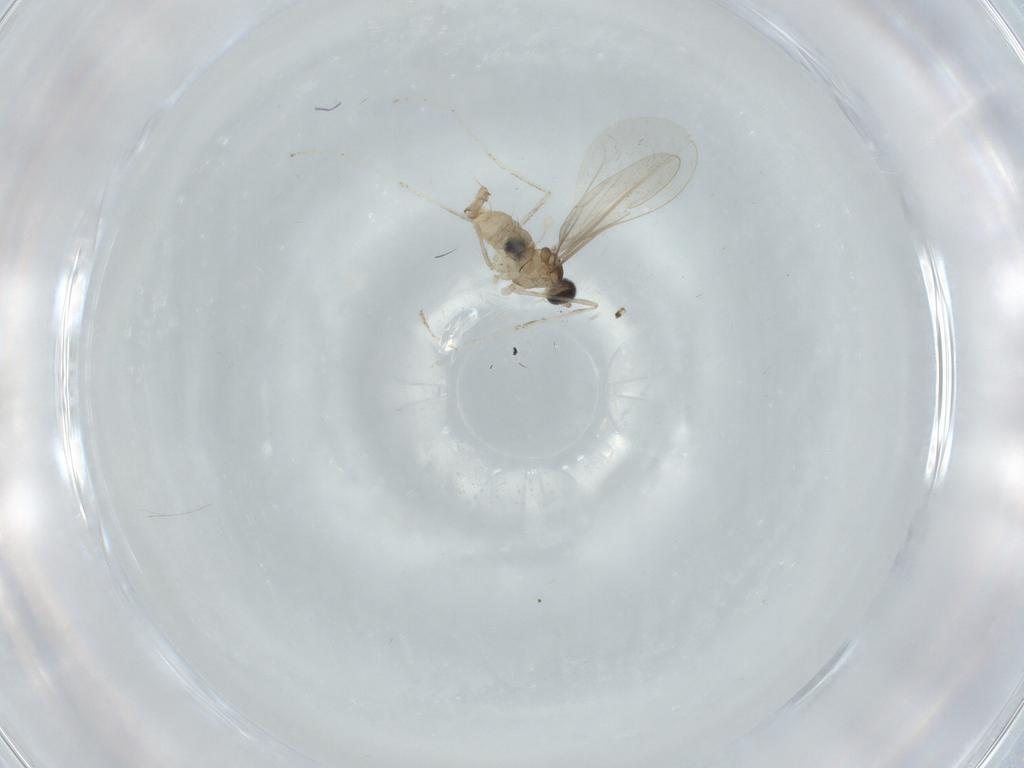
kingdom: Animalia
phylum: Arthropoda
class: Insecta
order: Diptera
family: Cecidomyiidae
